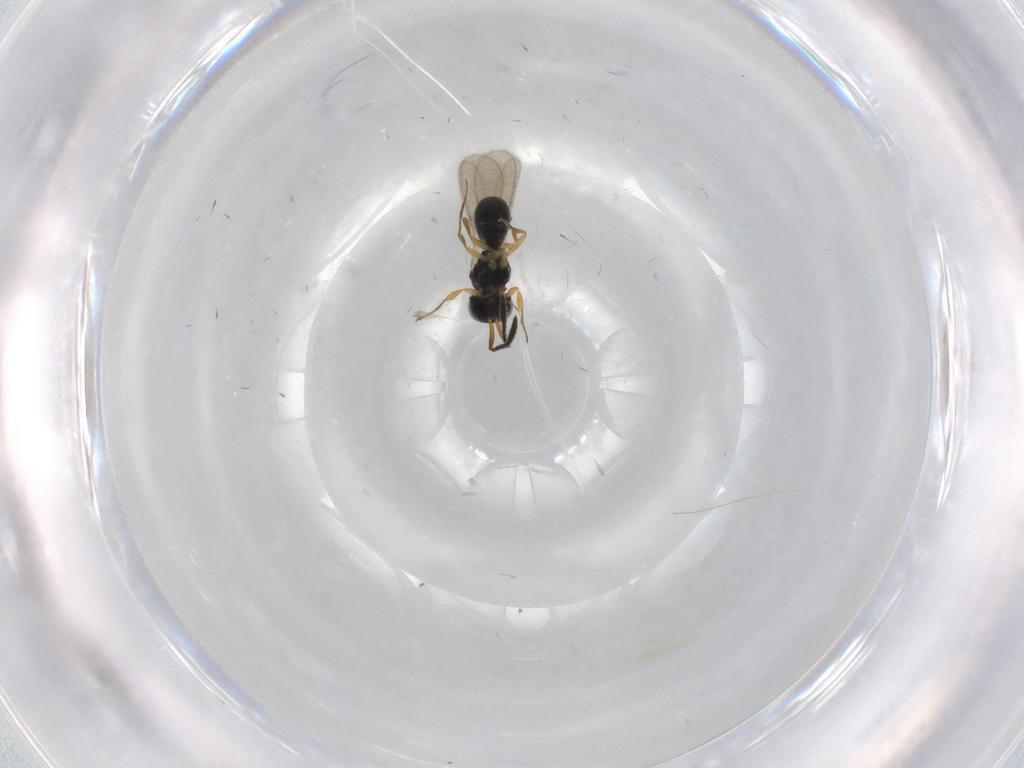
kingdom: Animalia
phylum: Arthropoda
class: Insecta
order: Hymenoptera
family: Scelionidae
